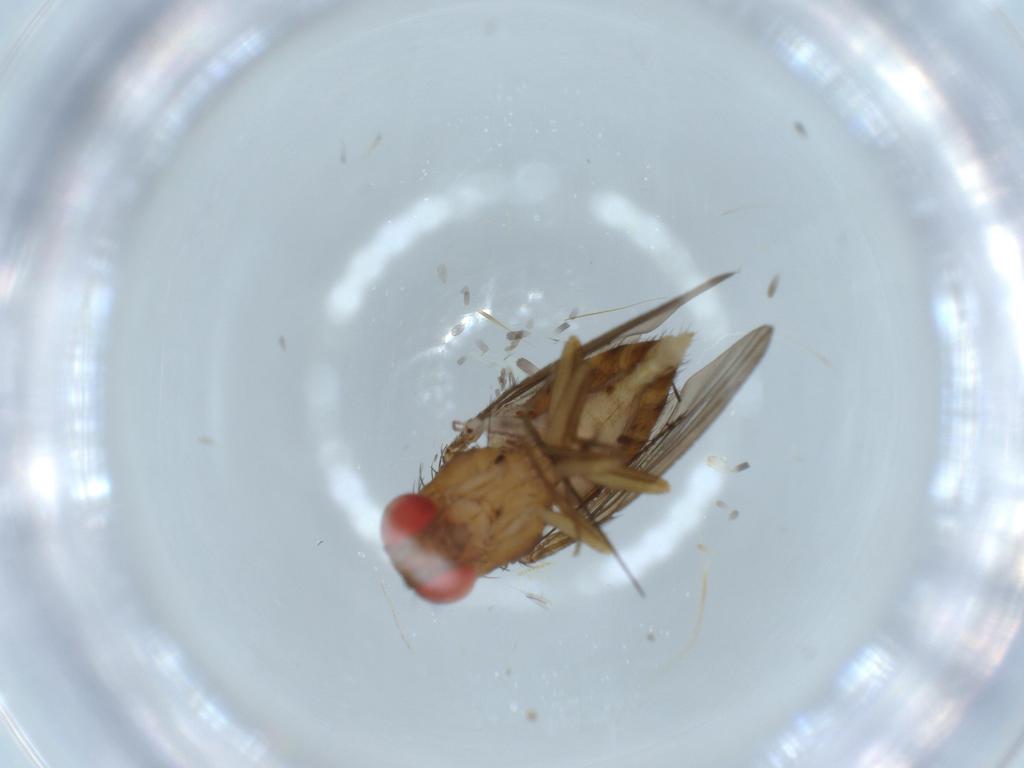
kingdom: Animalia
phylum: Arthropoda
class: Insecta
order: Diptera
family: Drosophilidae
